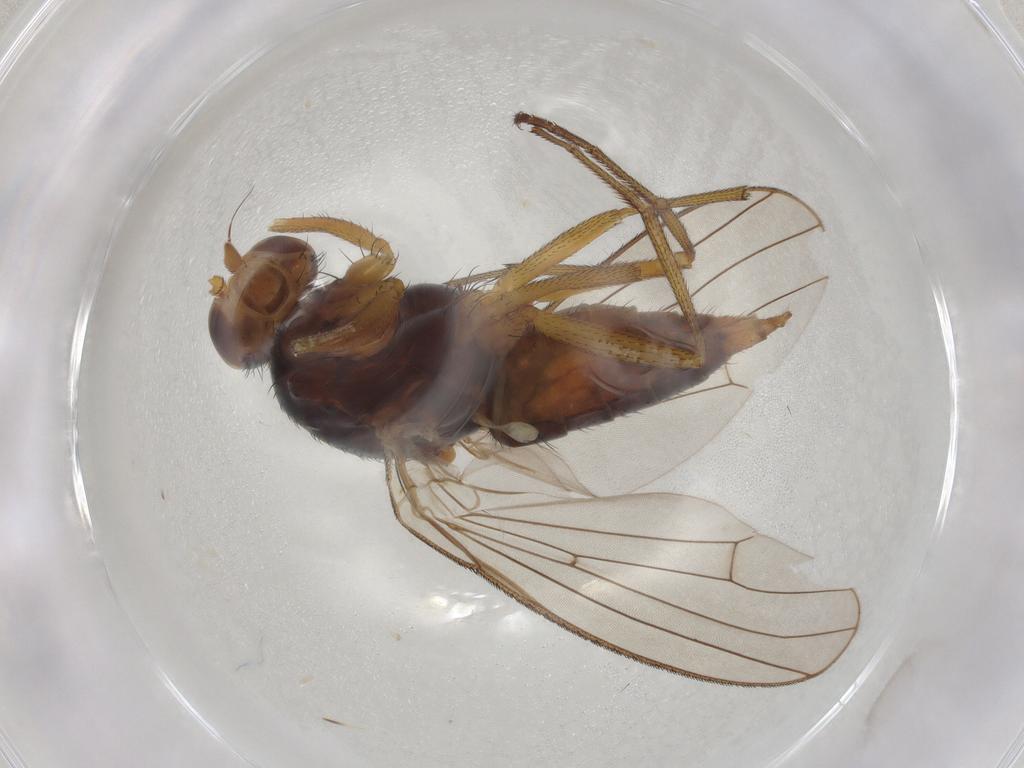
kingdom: Animalia
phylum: Arthropoda
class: Insecta
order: Diptera
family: Heleomyzidae
